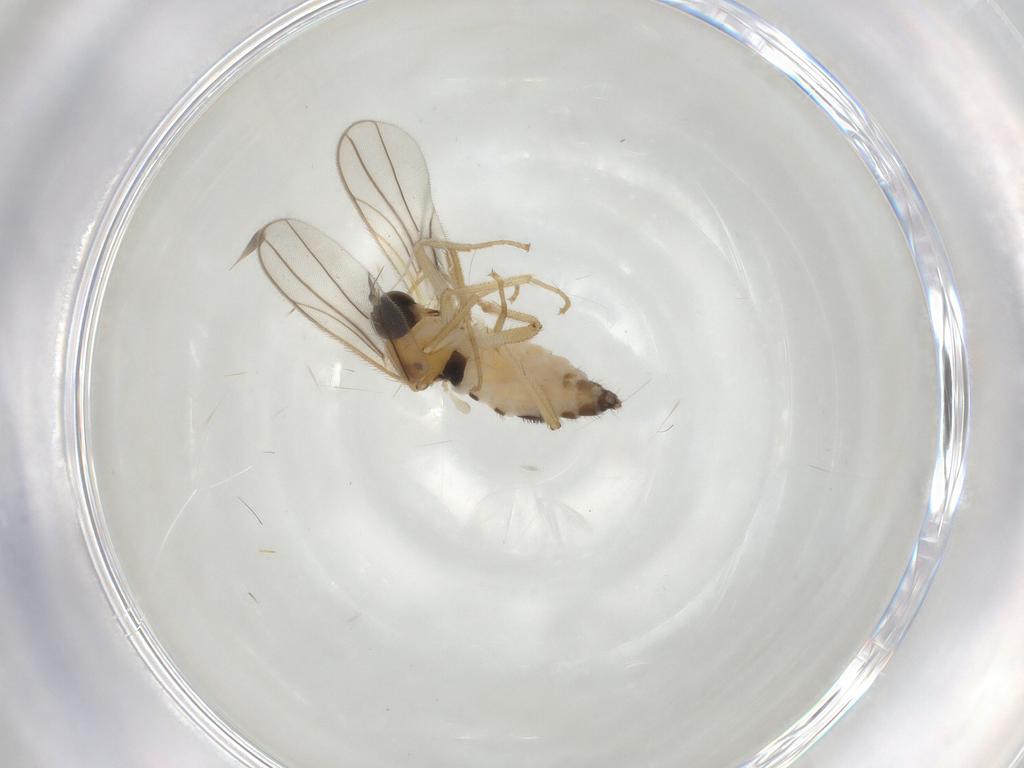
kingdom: Animalia
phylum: Arthropoda
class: Insecta
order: Diptera
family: Hybotidae
